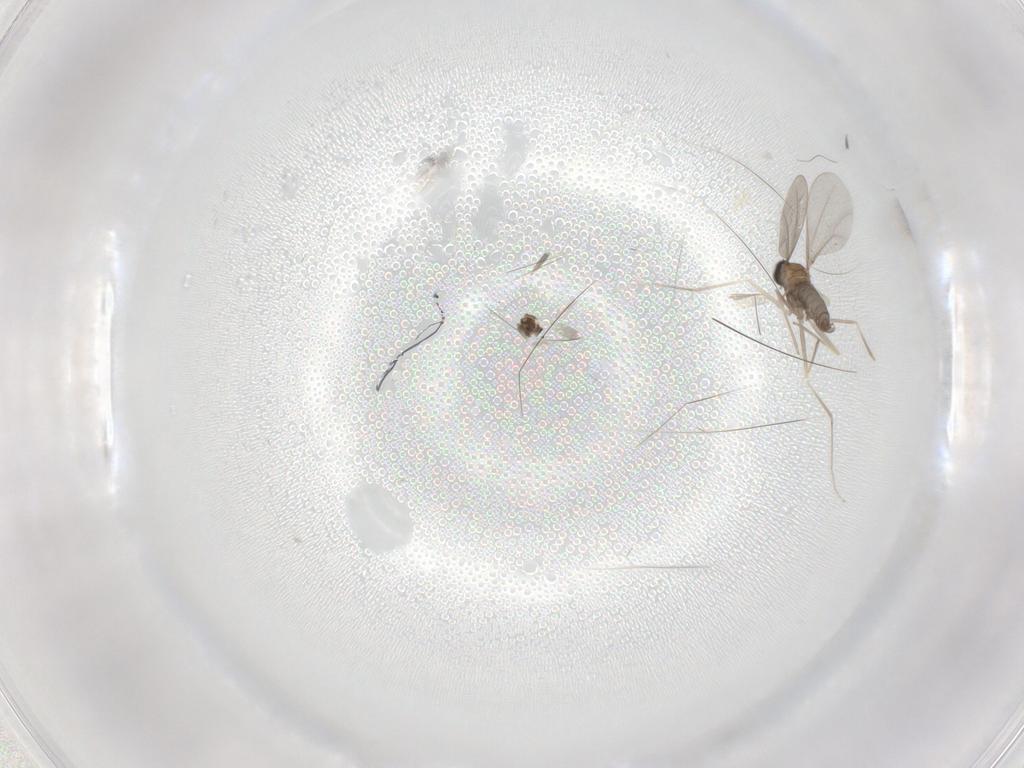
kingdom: Animalia
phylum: Arthropoda
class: Insecta
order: Diptera
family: Cecidomyiidae
